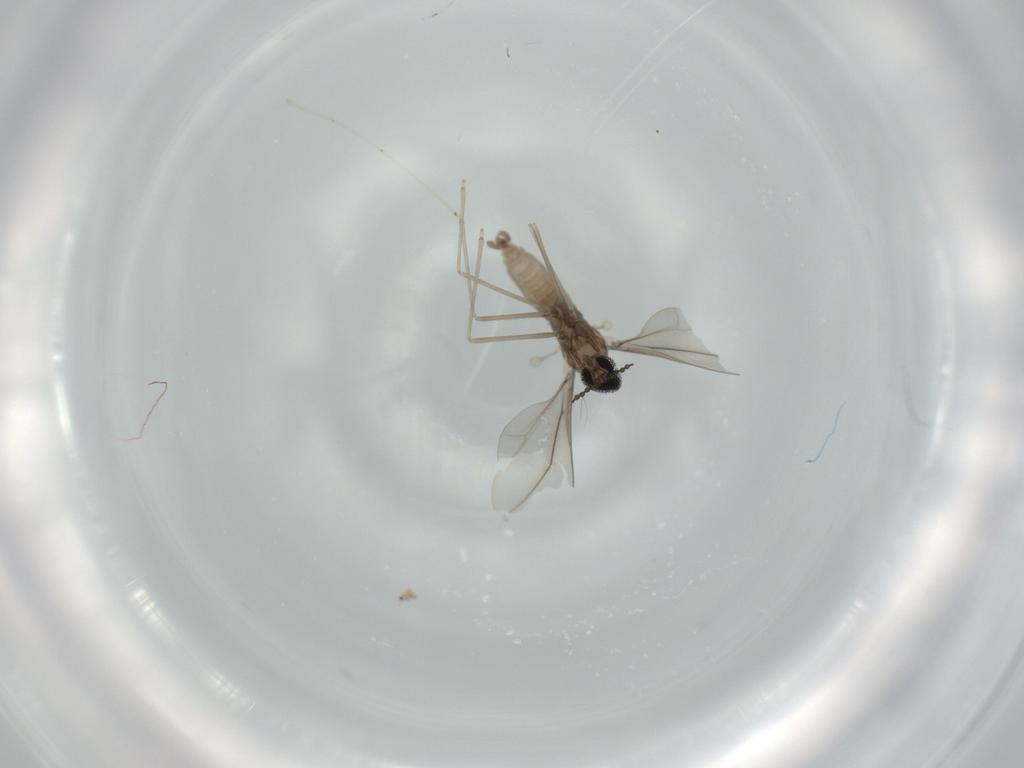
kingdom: Animalia
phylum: Arthropoda
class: Insecta
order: Diptera
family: Cecidomyiidae
